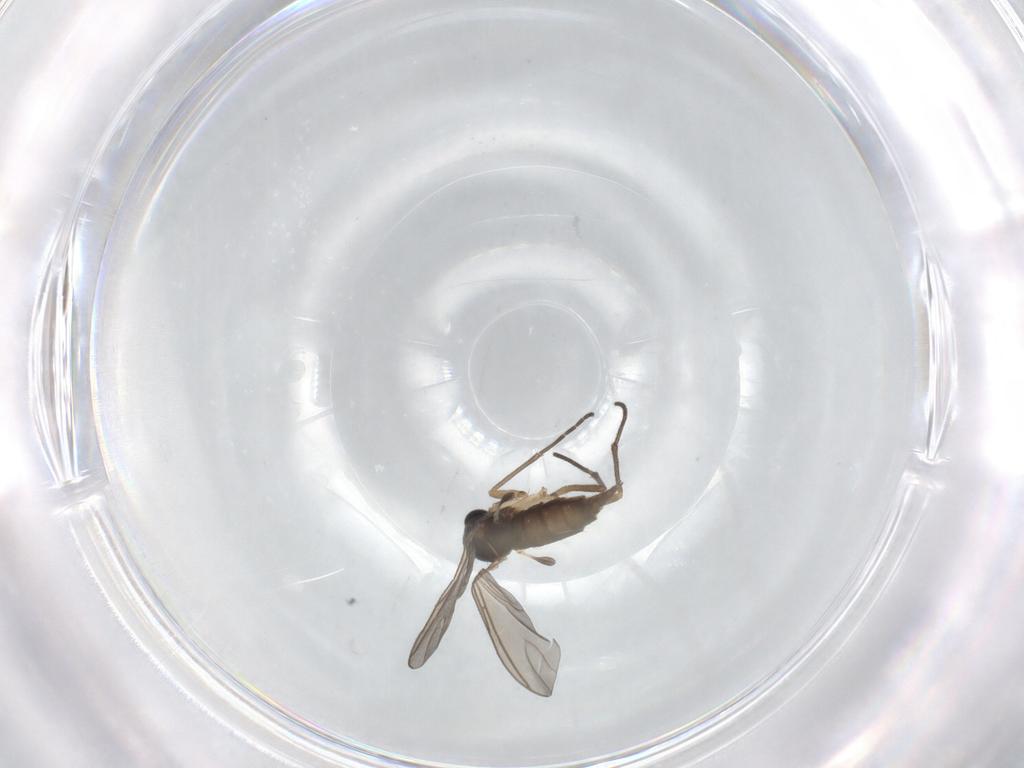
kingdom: Animalia
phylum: Arthropoda
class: Insecta
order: Diptera
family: Sciaridae
